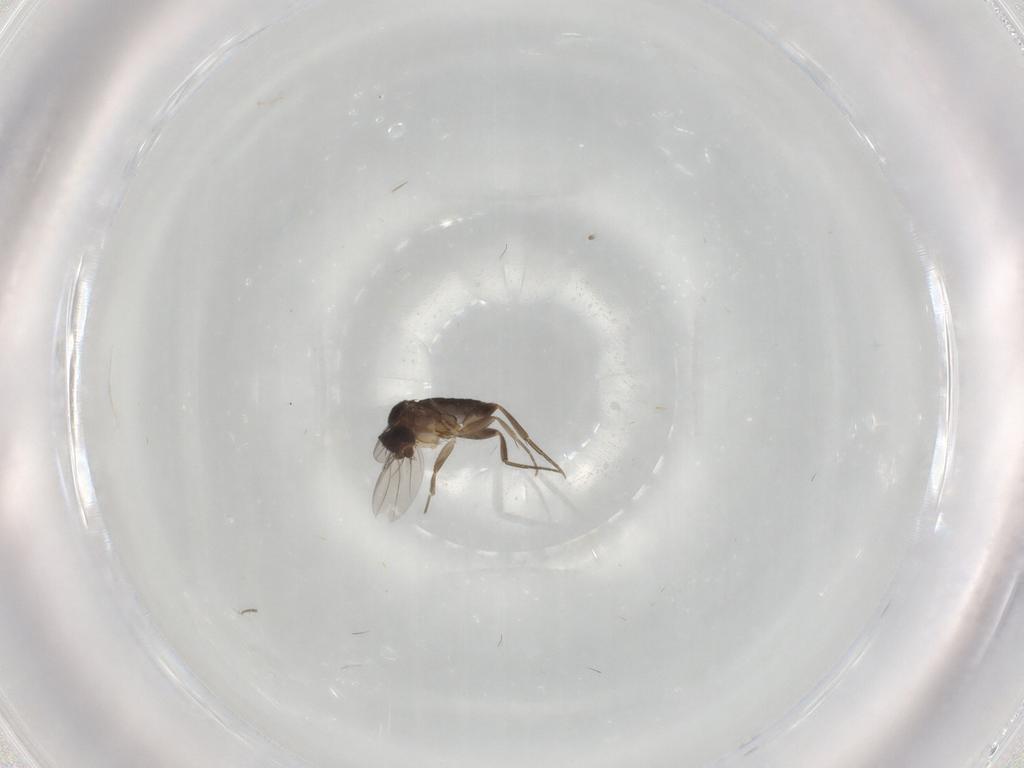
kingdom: Animalia
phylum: Arthropoda
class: Insecta
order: Diptera
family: Phoridae
